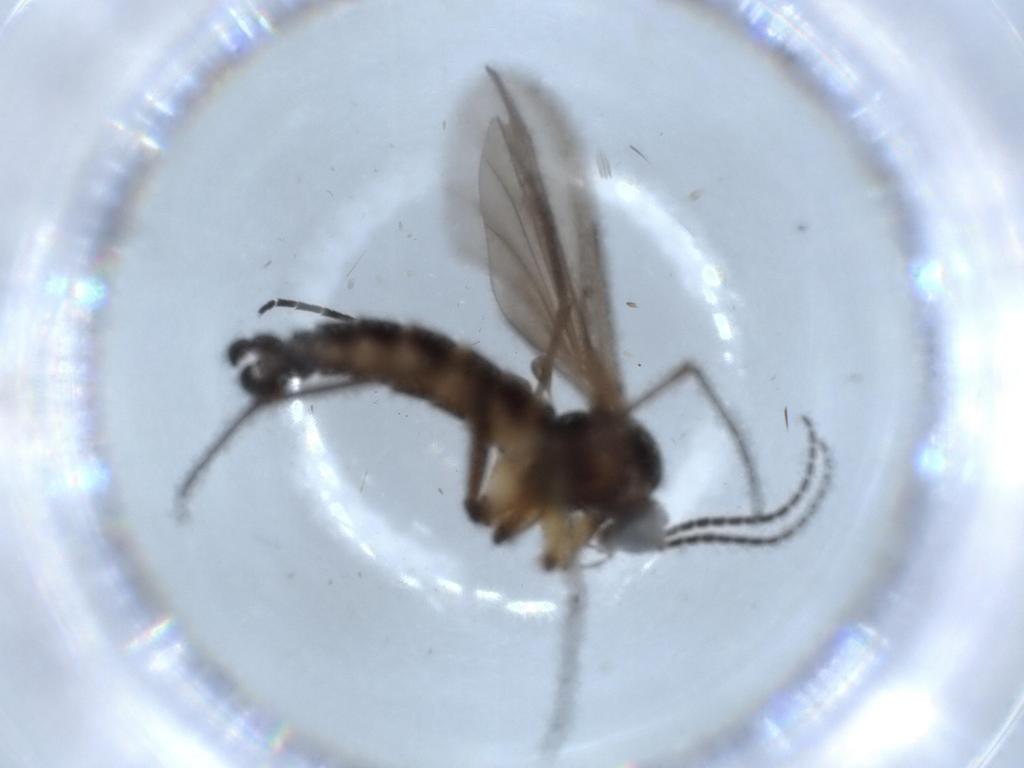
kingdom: Animalia
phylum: Arthropoda
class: Insecta
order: Diptera
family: Sciaridae
